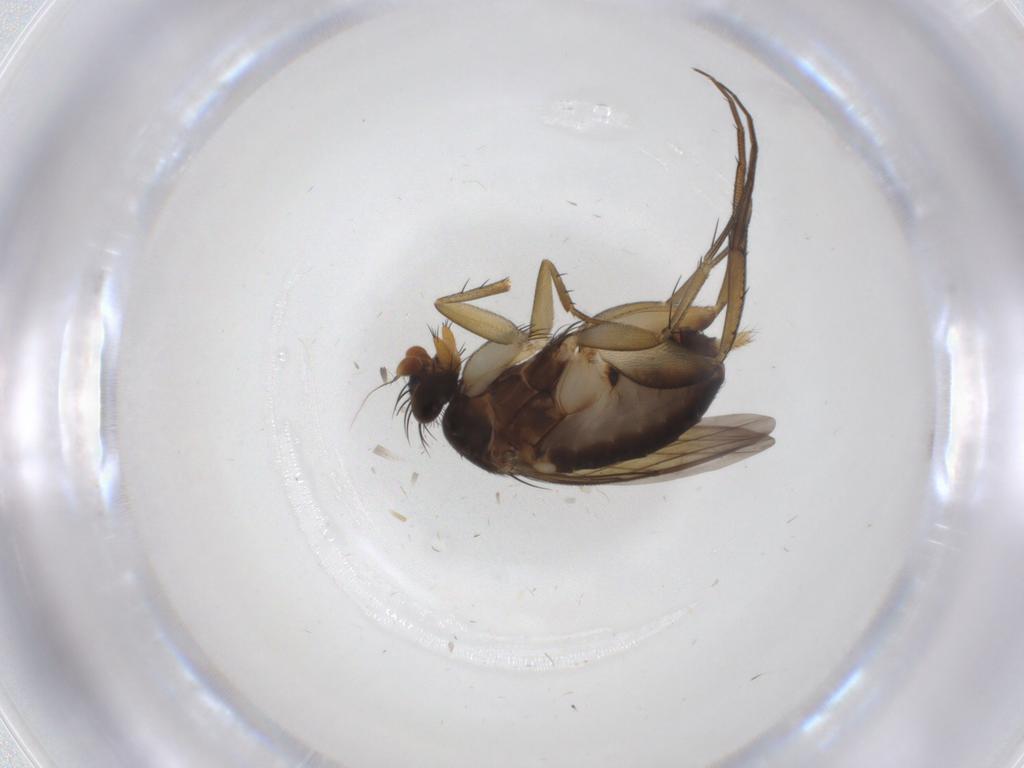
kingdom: Animalia
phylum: Arthropoda
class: Insecta
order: Diptera
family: Phoridae
